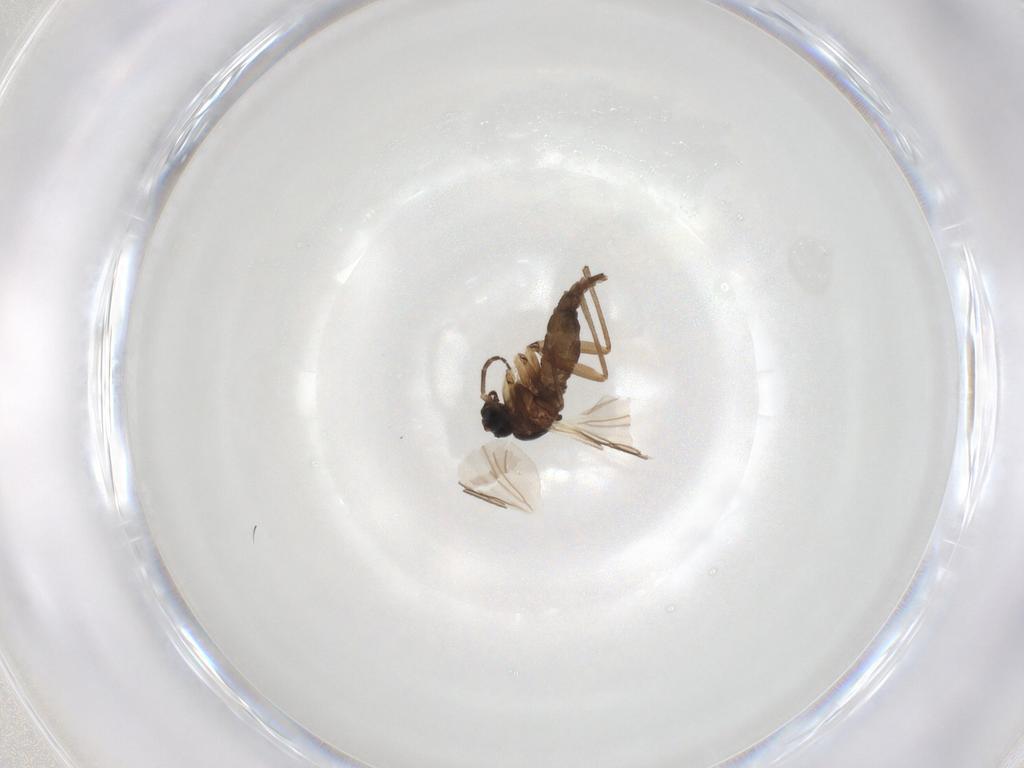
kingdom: Animalia
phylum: Arthropoda
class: Insecta
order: Diptera
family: Sciaridae
